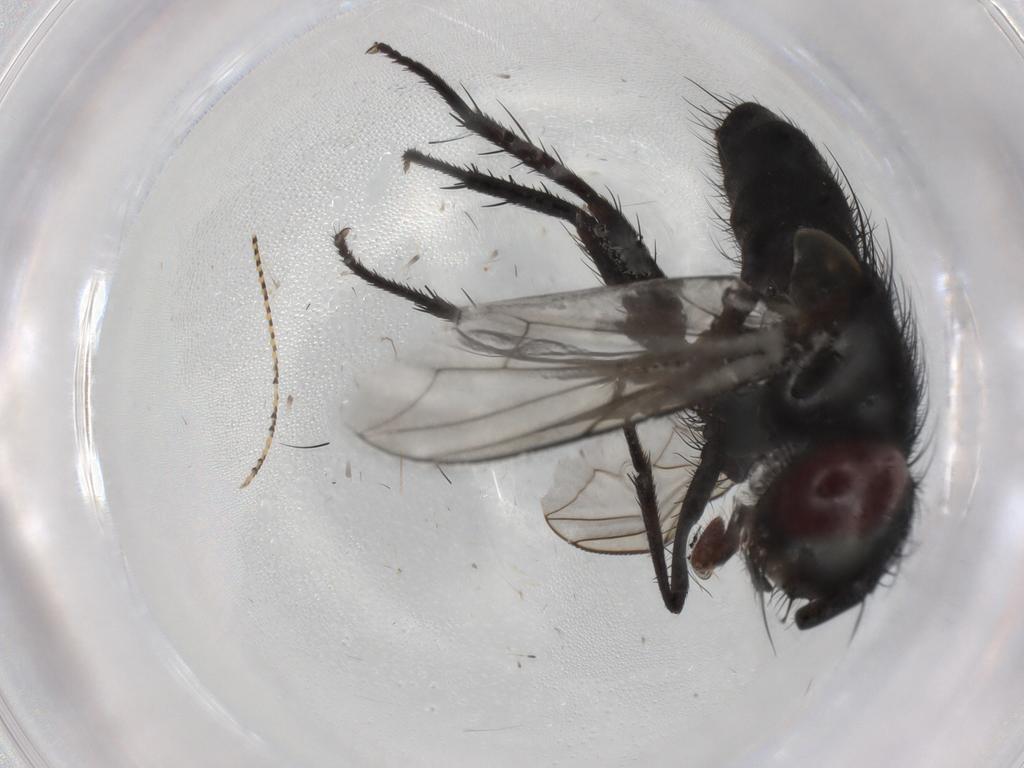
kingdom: Animalia
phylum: Arthropoda
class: Insecta
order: Diptera
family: Tachinidae
